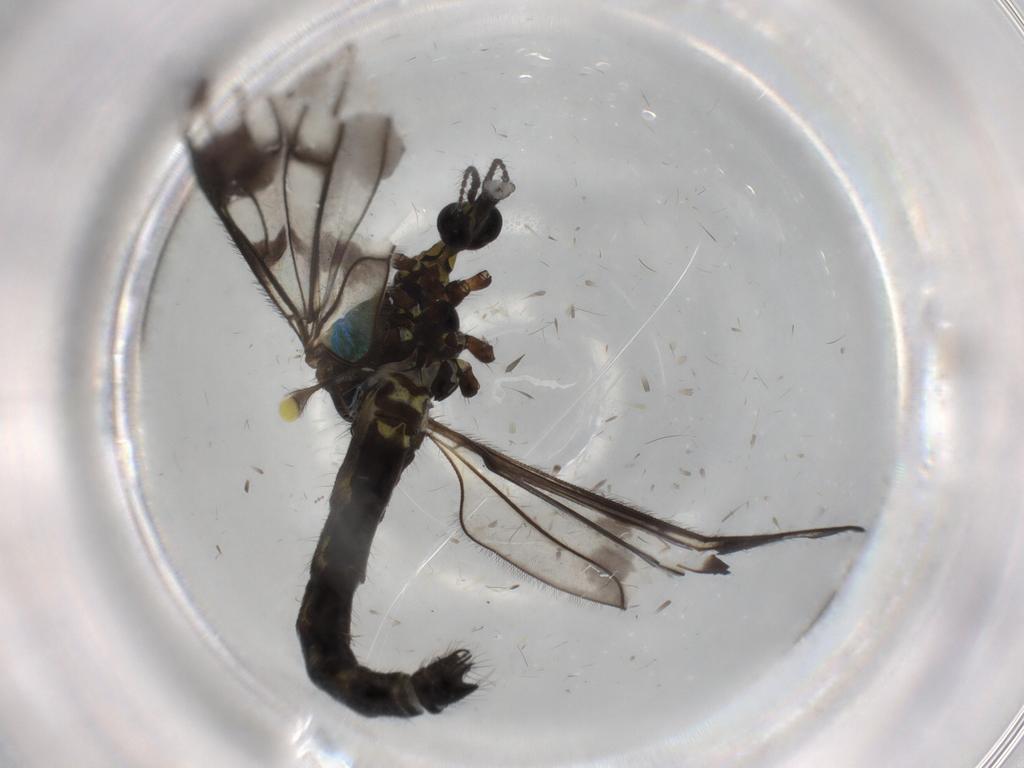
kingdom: Animalia
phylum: Arthropoda
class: Insecta
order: Diptera
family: Limoniidae
